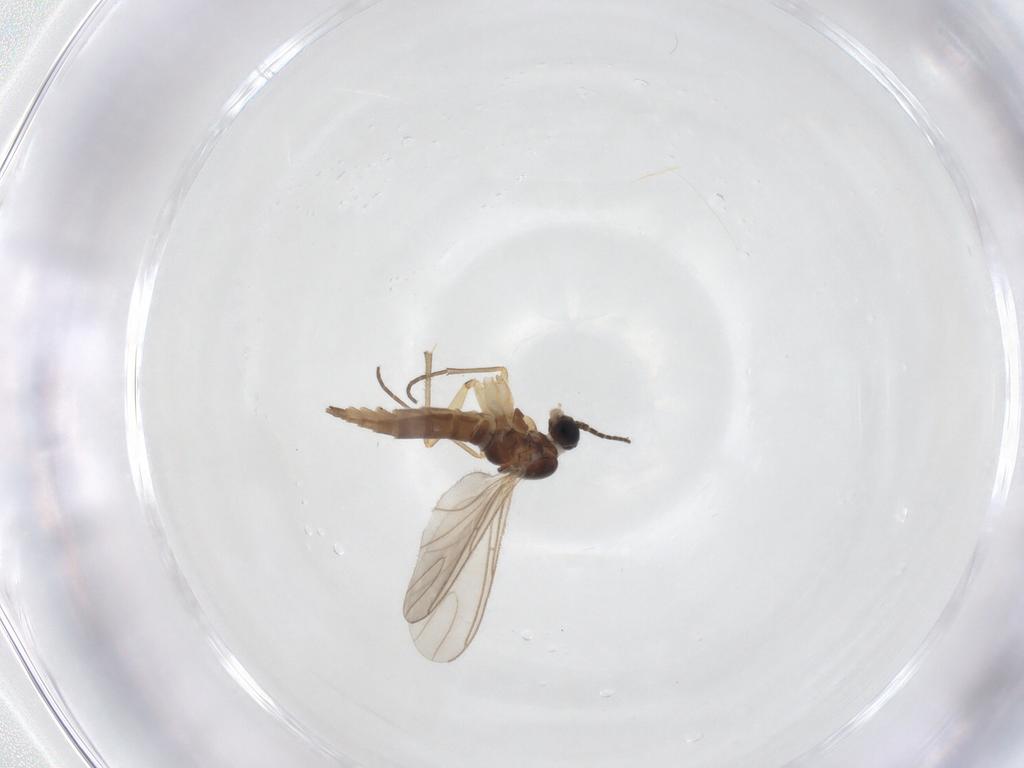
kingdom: Animalia
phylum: Arthropoda
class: Insecta
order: Diptera
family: Sciaridae
